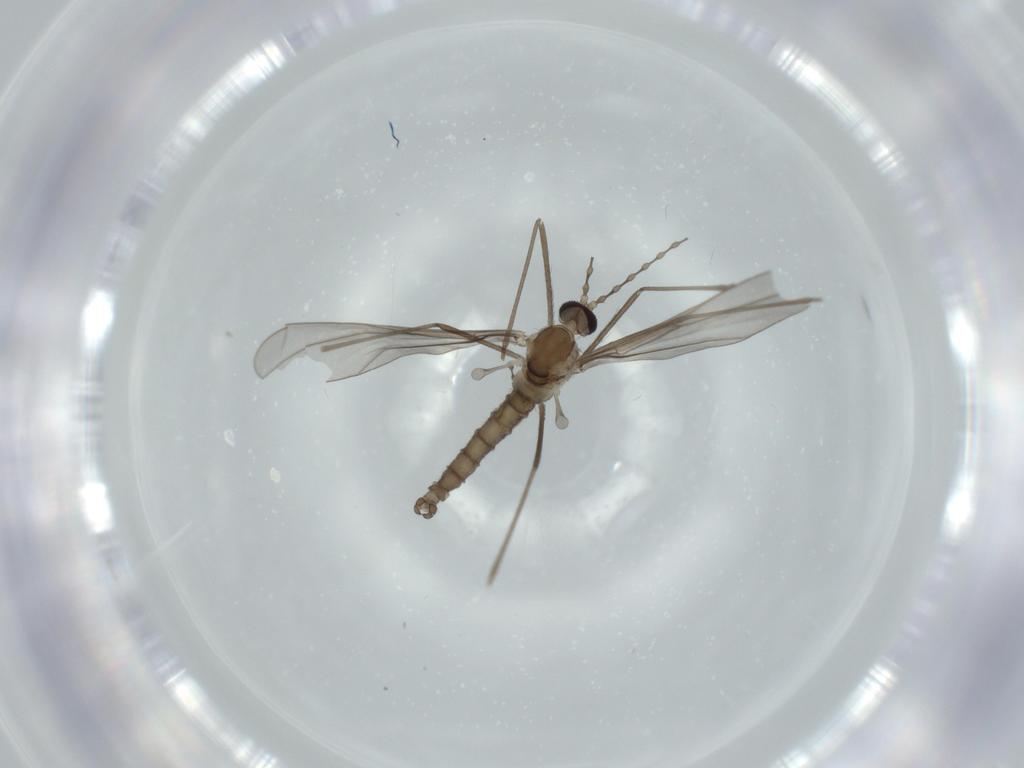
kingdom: Animalia
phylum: Arthropoda
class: Insecta
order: Diptera
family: Cecidomyiidae
